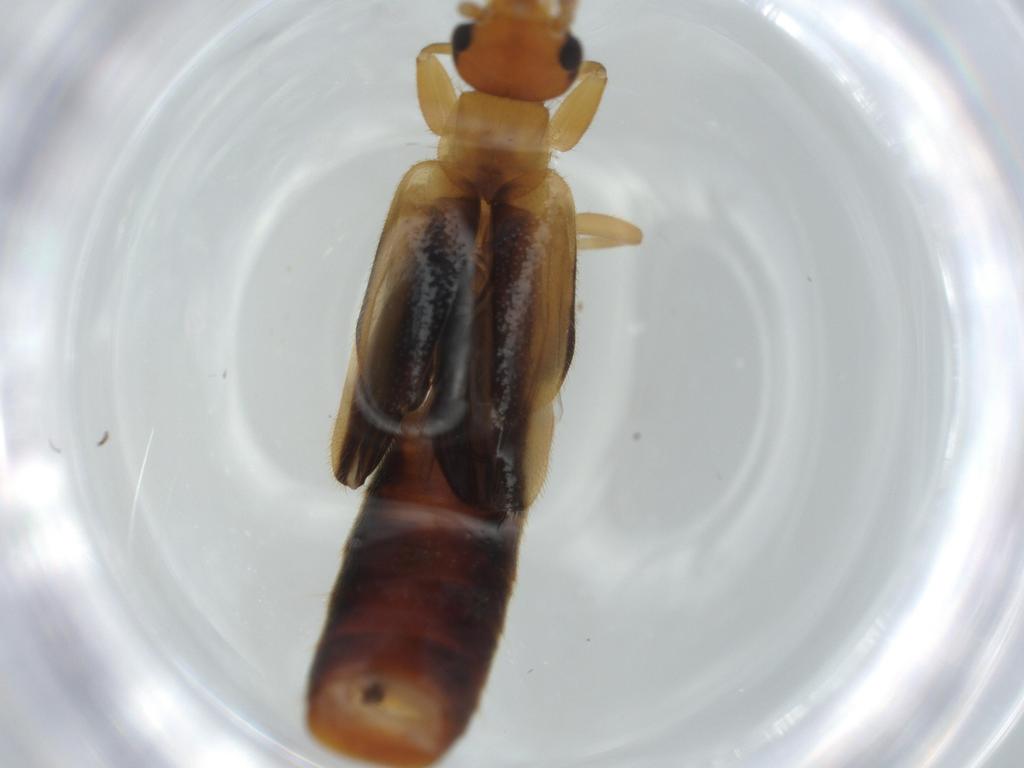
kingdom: Animalia
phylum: Arthropoda
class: Insecta
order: Dermaptera
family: Forficulidae
